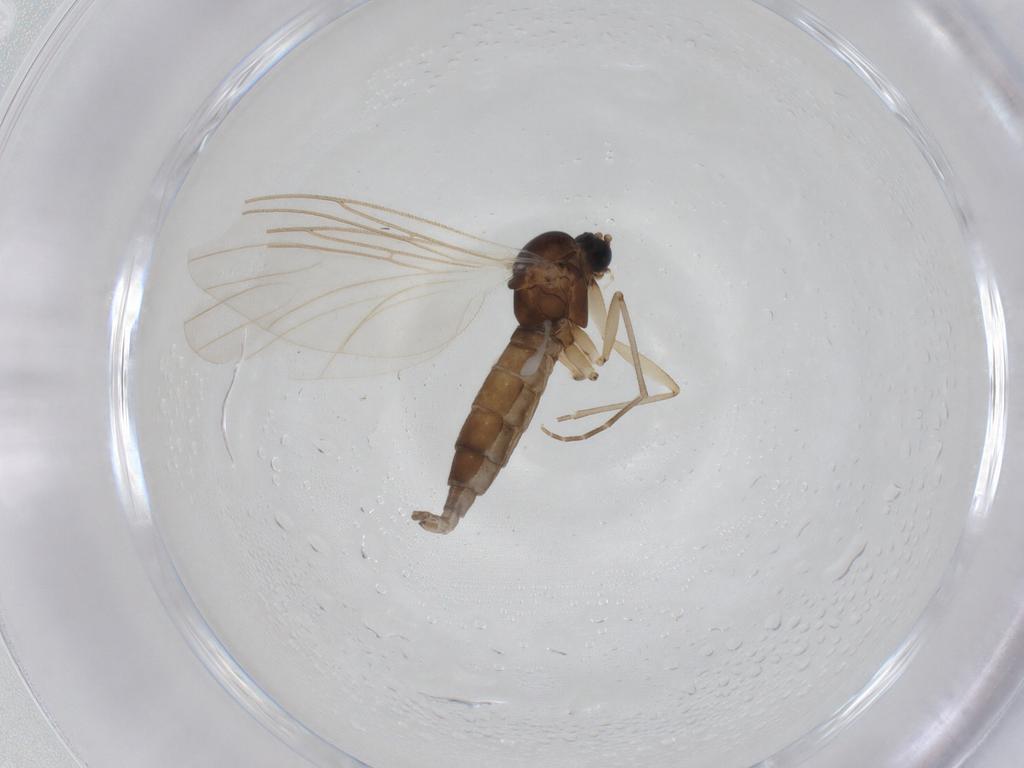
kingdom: Animalia
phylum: Arthropoda
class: Insecta
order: Diptera
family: Sciaridae
